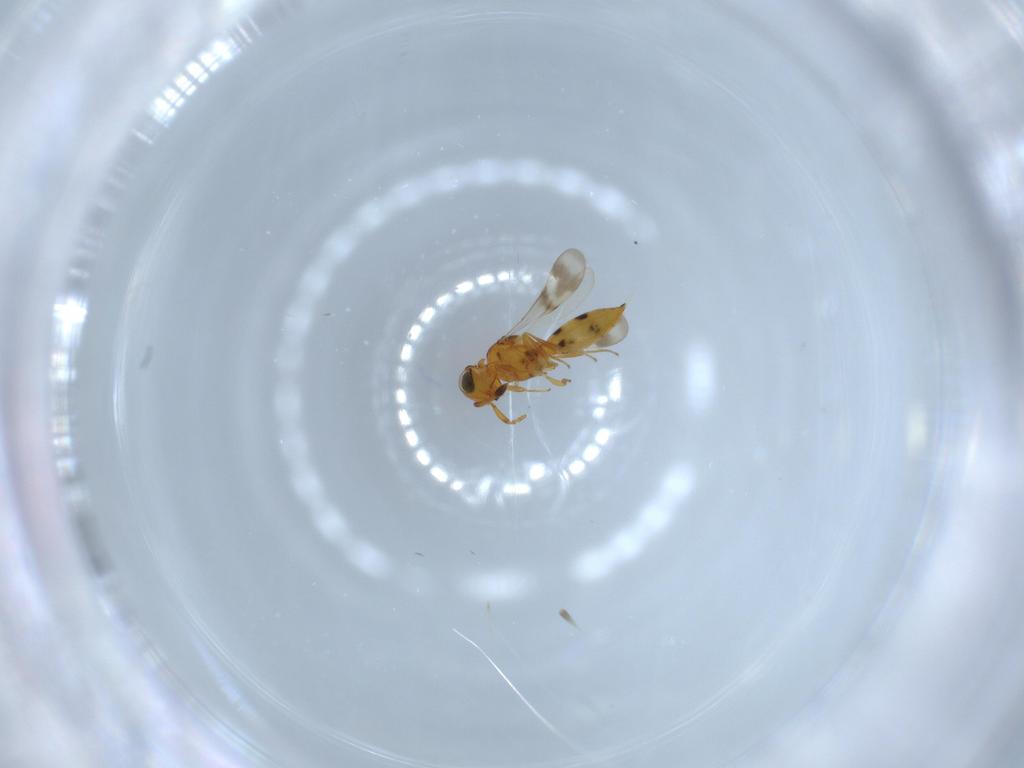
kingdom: Animalia
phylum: Arthropoda
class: Insecta
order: Hymenoptera
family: Scelionidae
